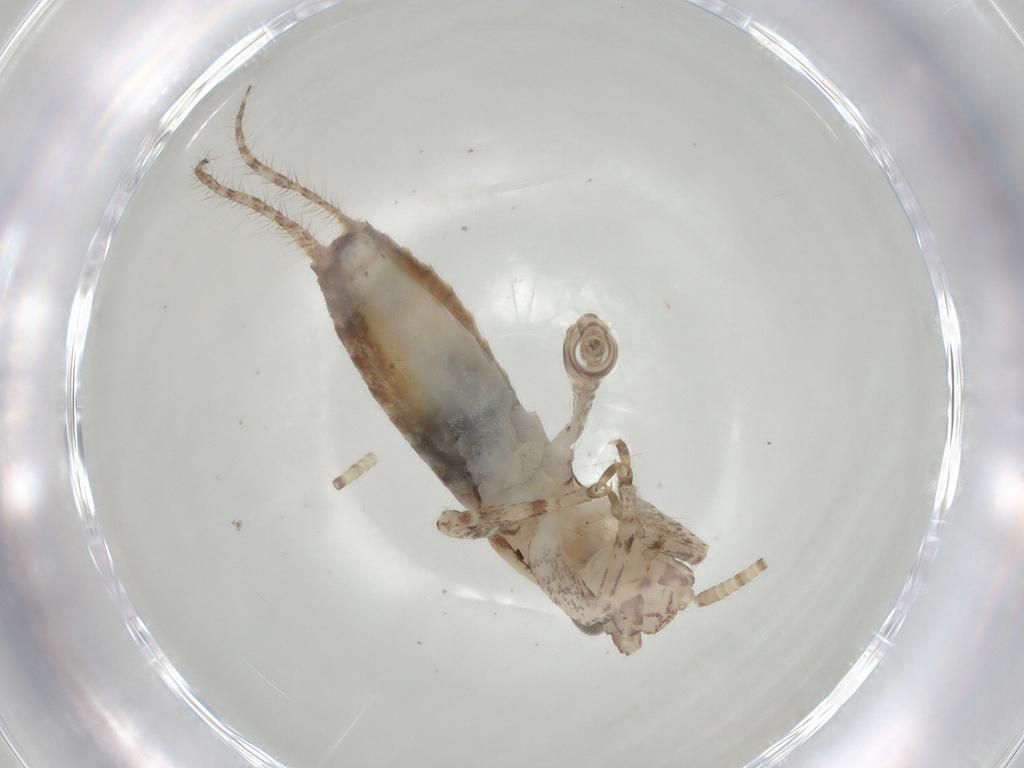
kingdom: Animalia
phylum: Arthropoda
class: Insecta
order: Orthoptera
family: Mogoplistidae
